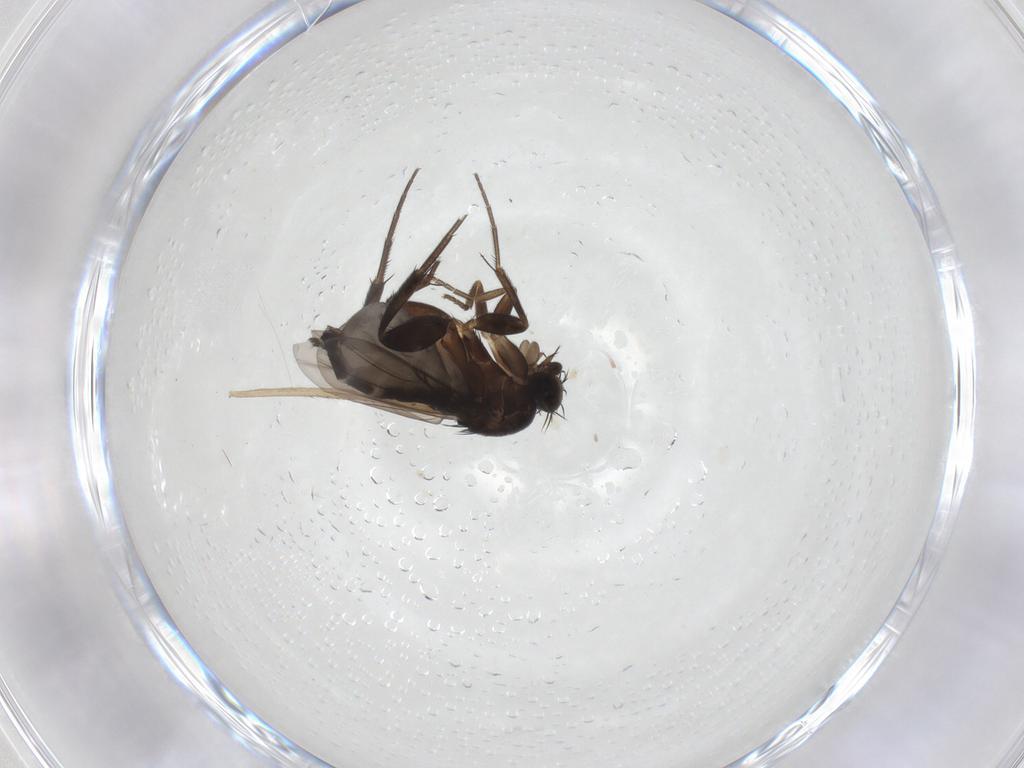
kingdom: Animalia
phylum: Arthropoda
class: Insecta
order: Diptera
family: Phoridae
